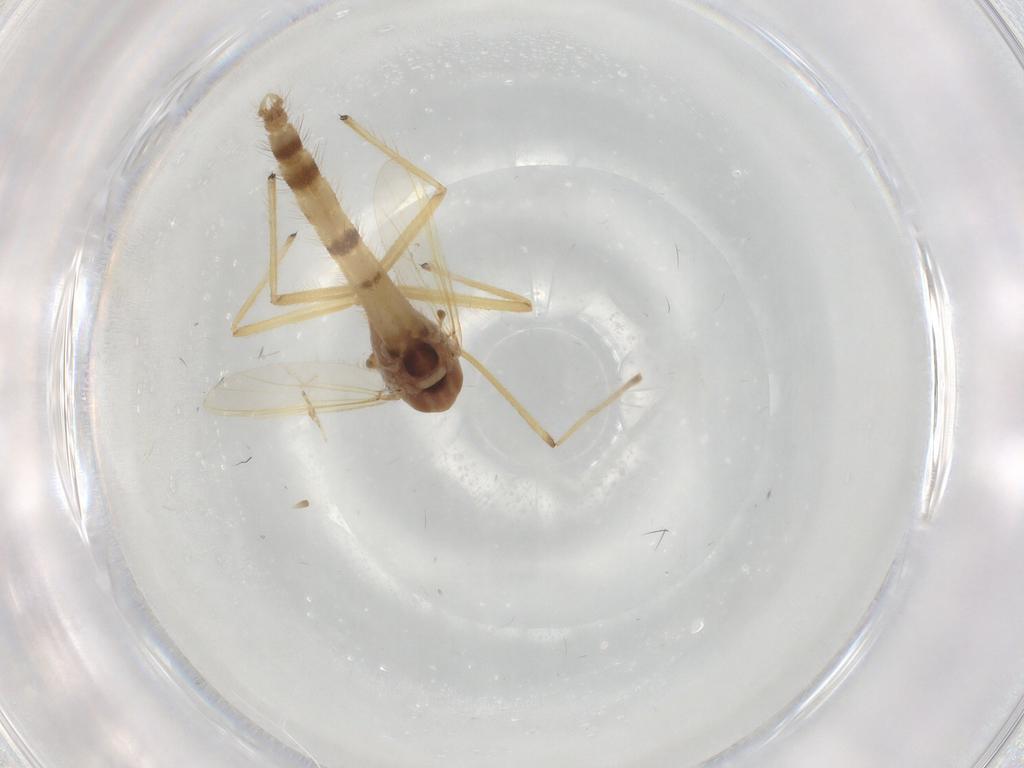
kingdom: Animalia
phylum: Arthropoda
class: Insecta
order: Diptera
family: Chironomidae
